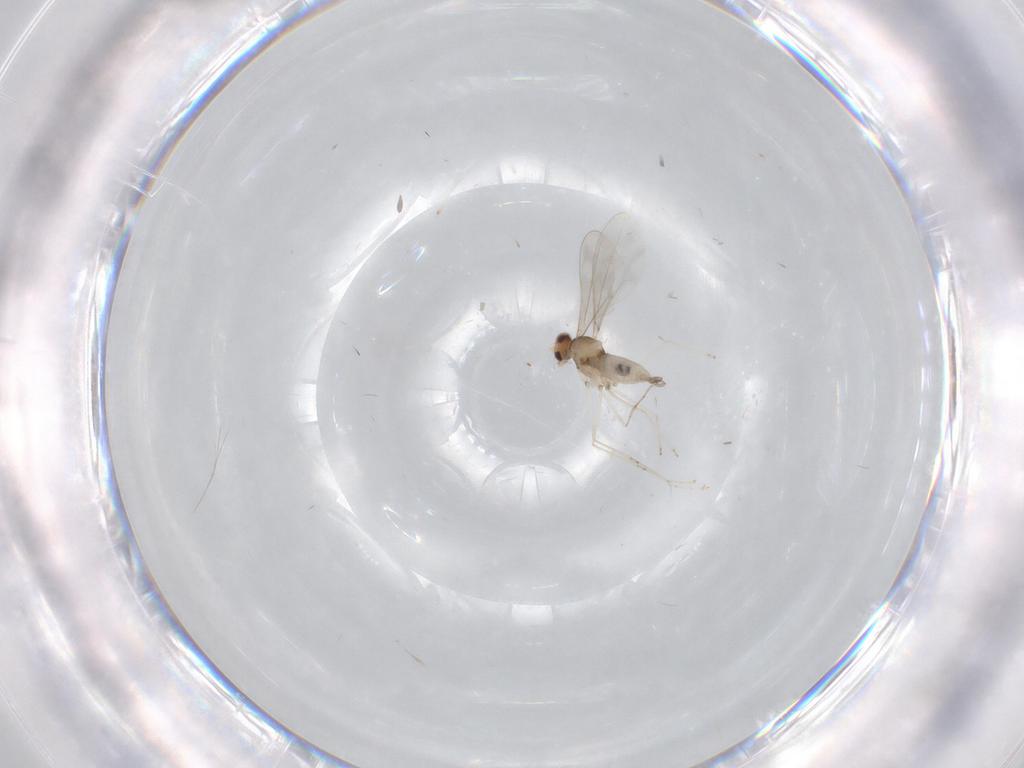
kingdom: Animalia
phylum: Arthropoda
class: Insecta
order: Diptera
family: Cecidomyiidae
